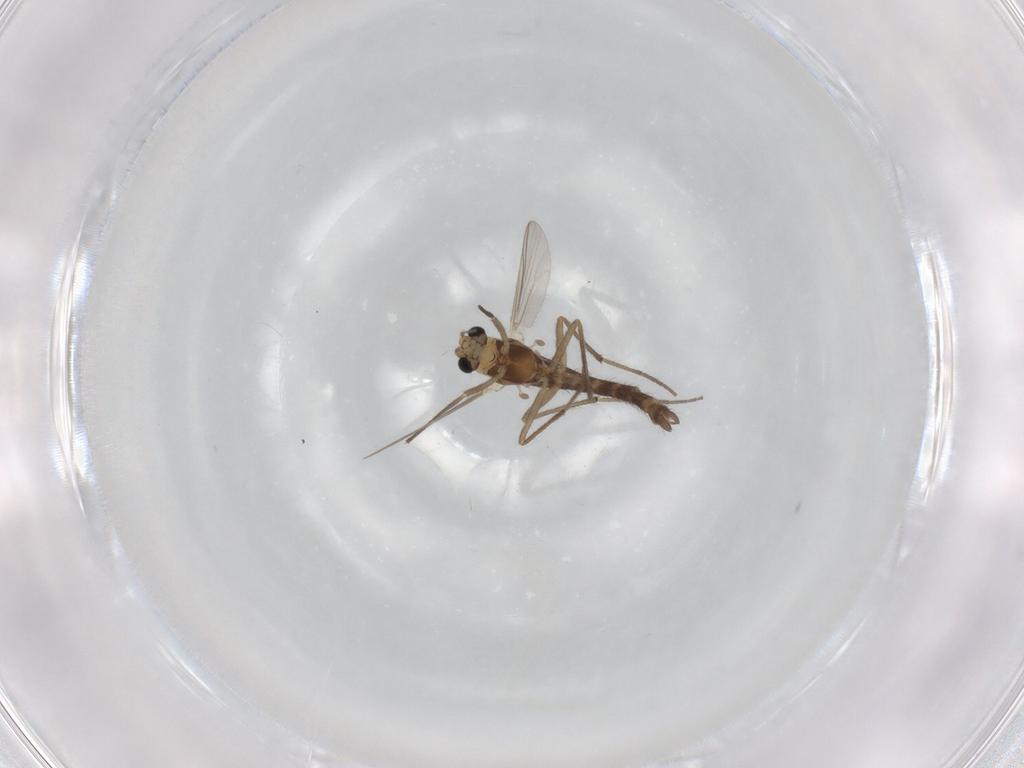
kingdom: Animalia
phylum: Arthropoda
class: Insecta
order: Diptera
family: Chironomidae
